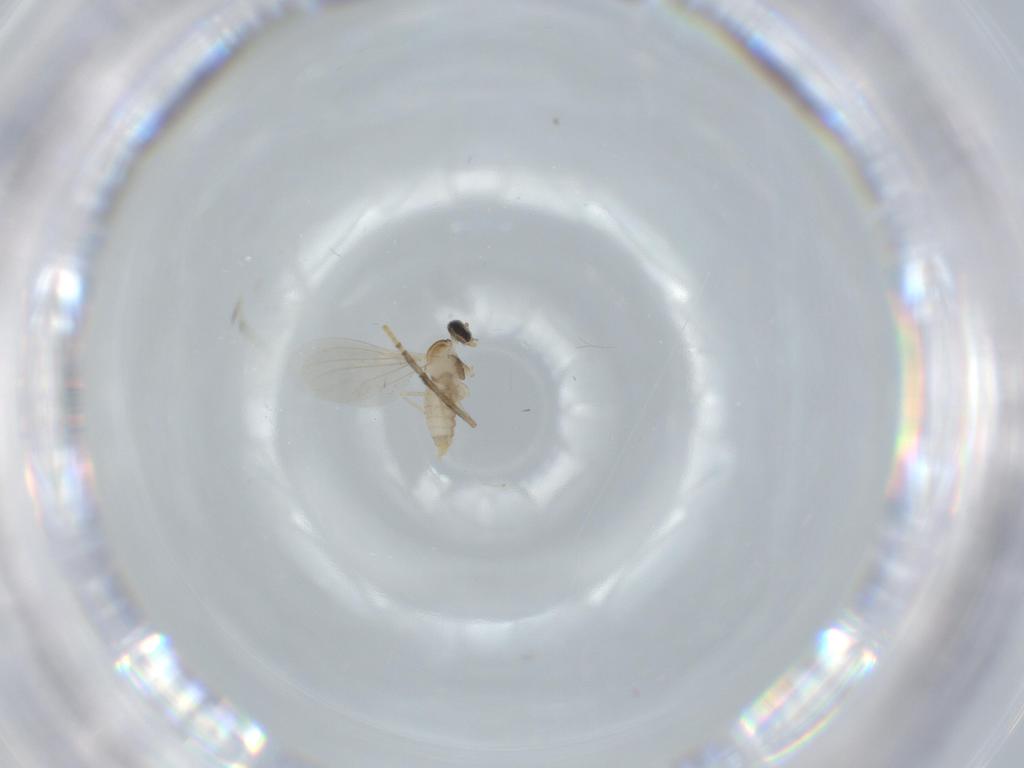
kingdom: Animalia
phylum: Arthropoda
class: Insecta
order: Diptera
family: Cecidomyiidae
